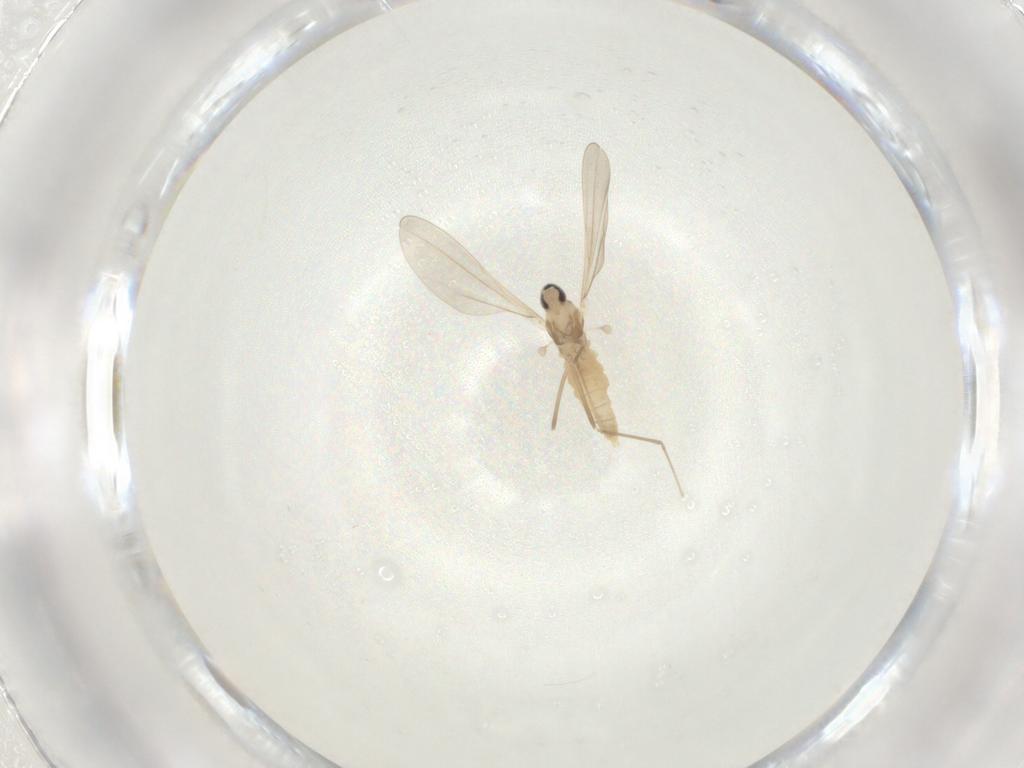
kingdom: Animalia
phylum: Arthropoda
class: Insecta
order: Diptera
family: Cecidomyiidae
